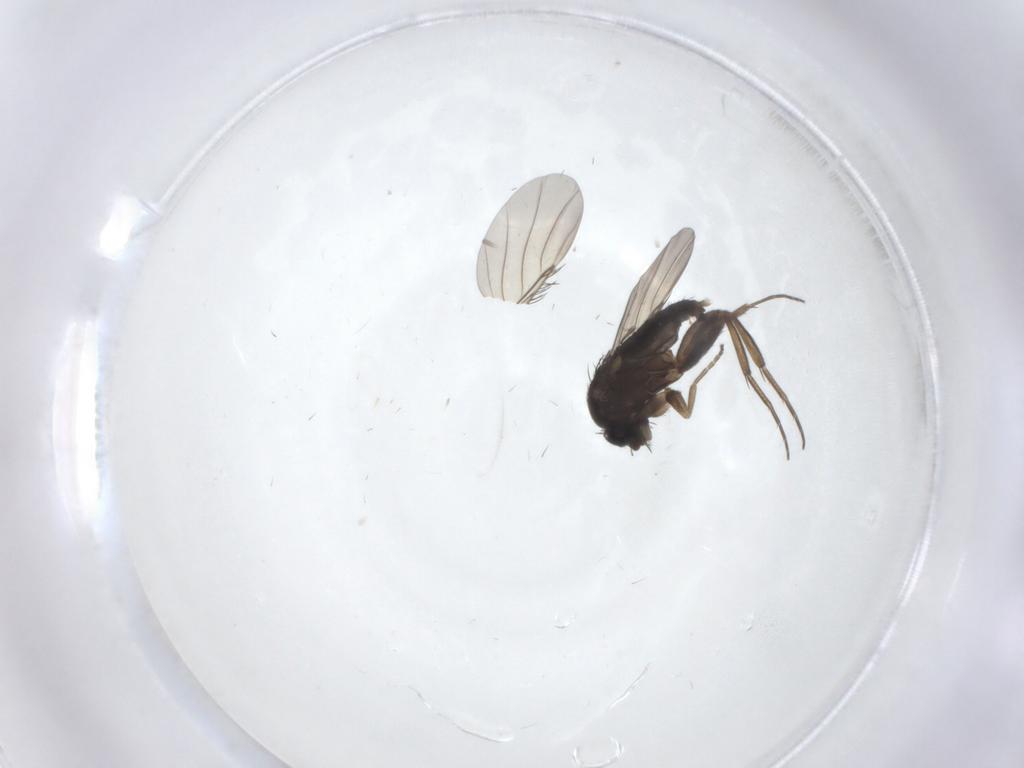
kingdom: Animalia
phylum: Arthropoda
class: Insecta
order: Diptera
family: Phoridae
